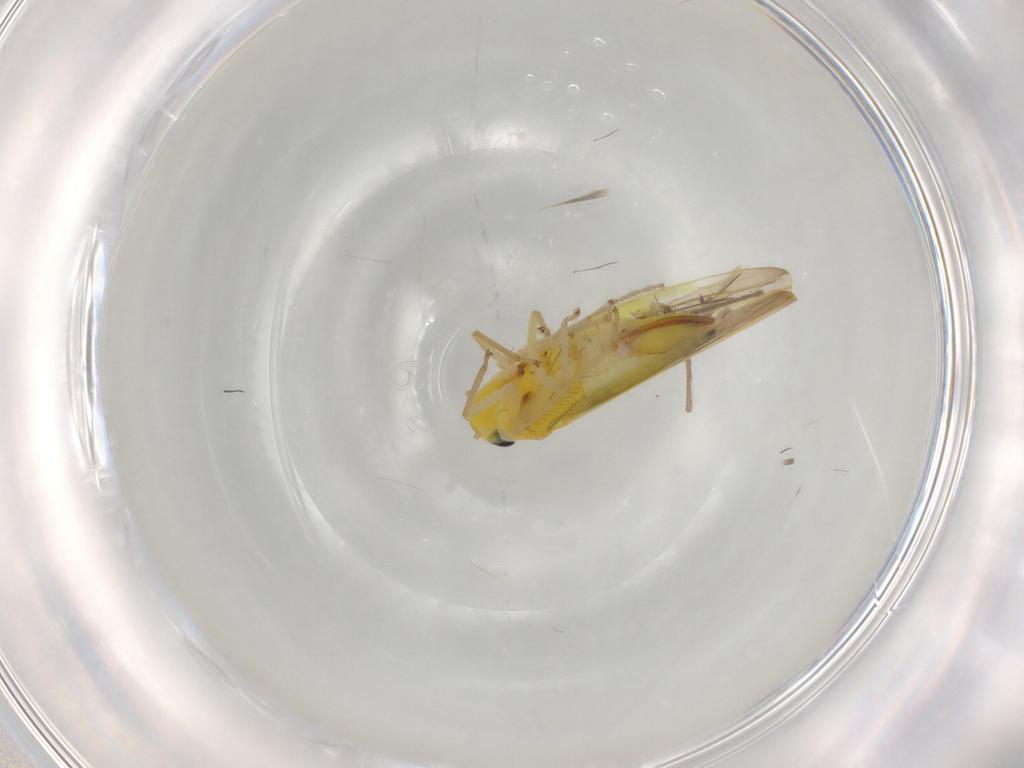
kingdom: Animalia
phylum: Arthropoda
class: Insecta
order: Hemiptera
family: Cicadellidae
